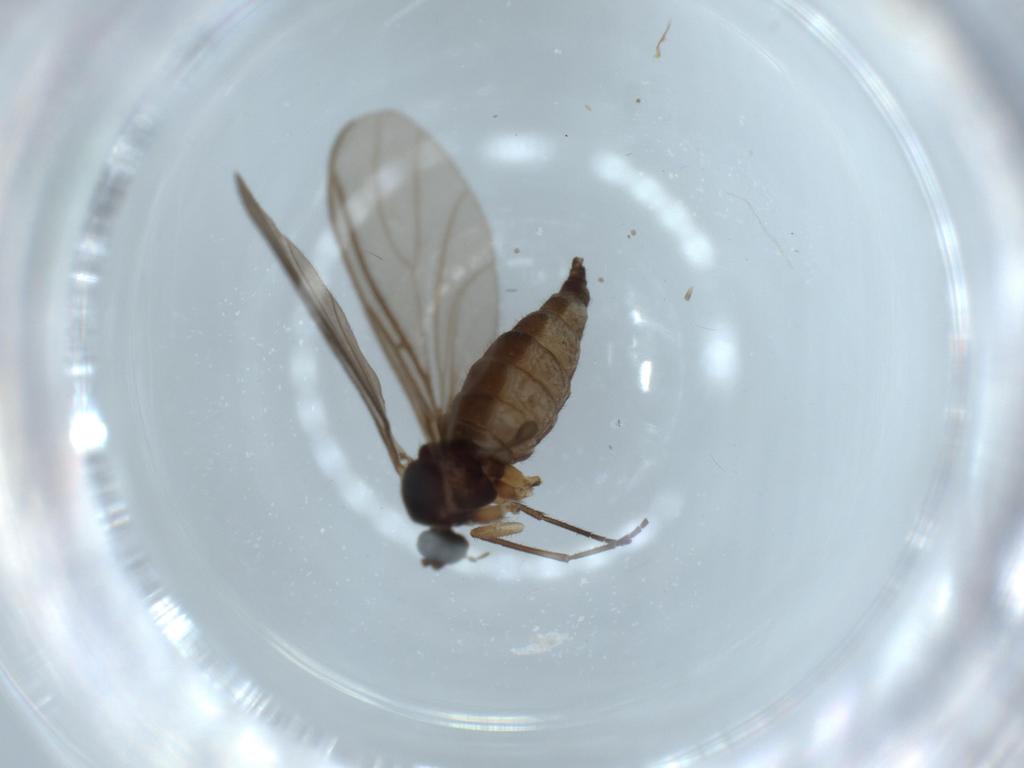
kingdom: Animalia
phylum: Arthropoda
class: Insecta
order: Diptera
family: Sciaridae
